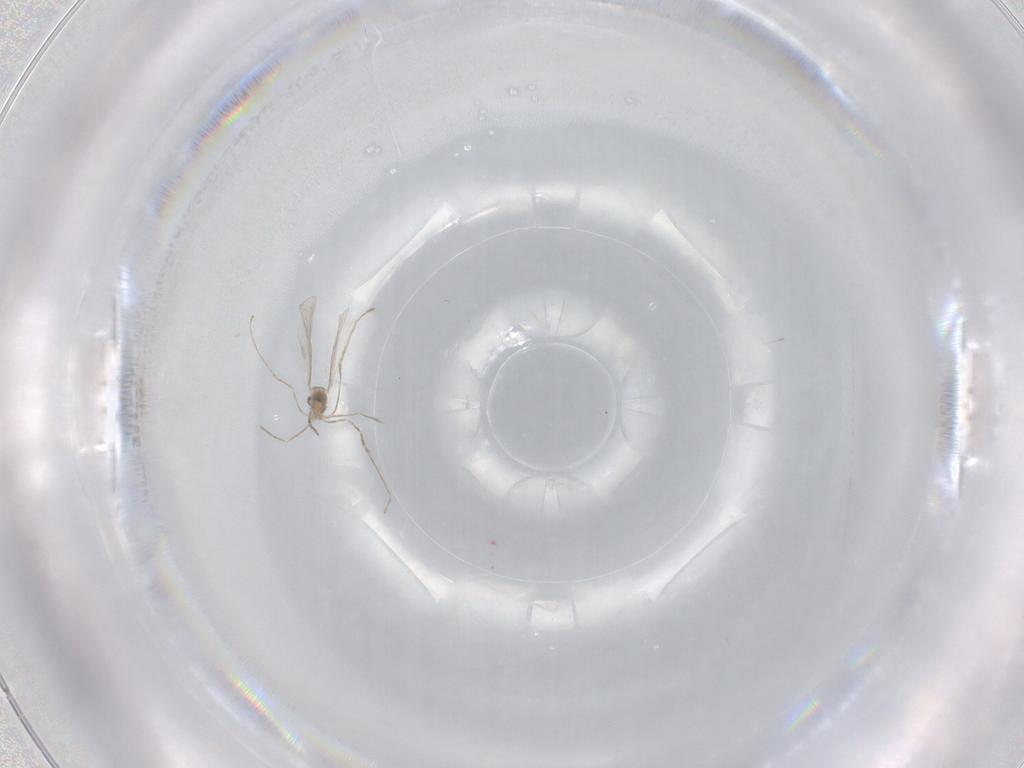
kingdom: Animalia
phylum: Arthropoda
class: Insecta
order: Diptera
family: Cecidomyiidae
